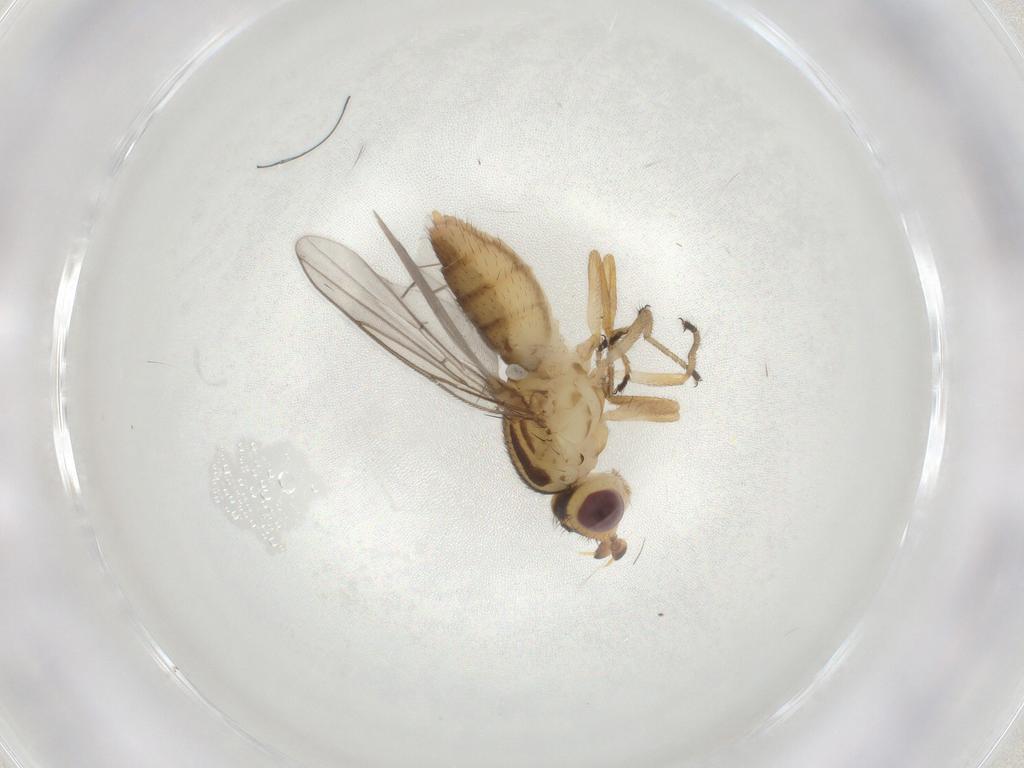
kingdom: Animalia
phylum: Arthropoda
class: Insecta
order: Diptera
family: Chloropidae
